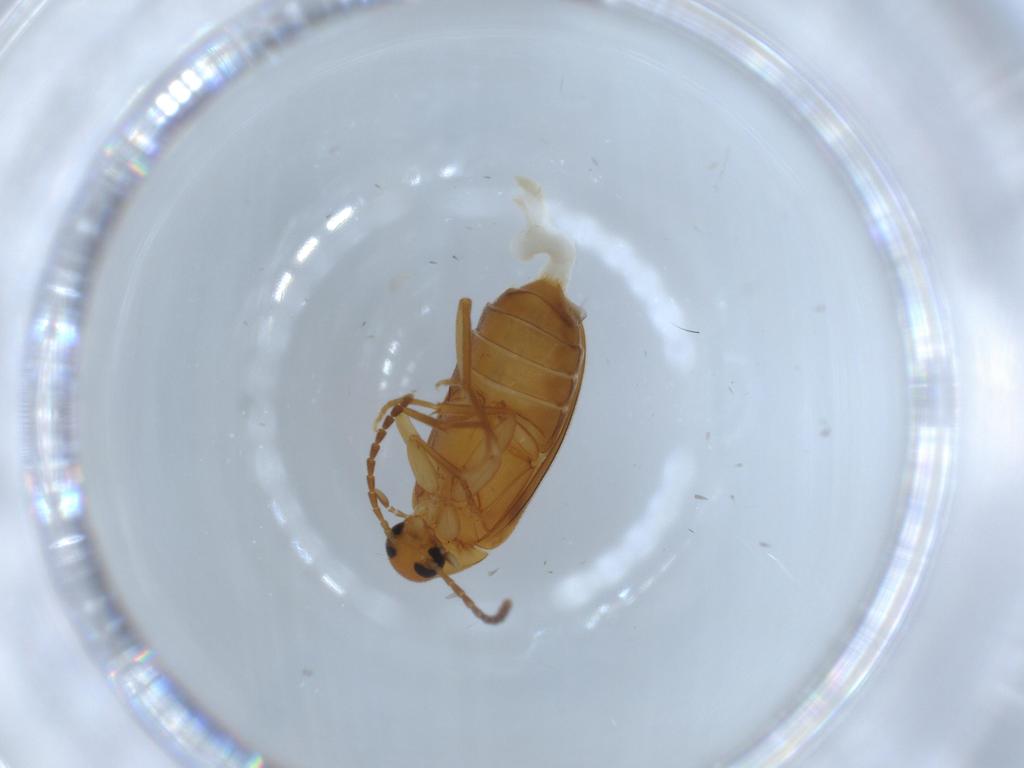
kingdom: Animalia
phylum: Arthropoda
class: Insecta
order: Coleoptera
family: Scraptiidae
